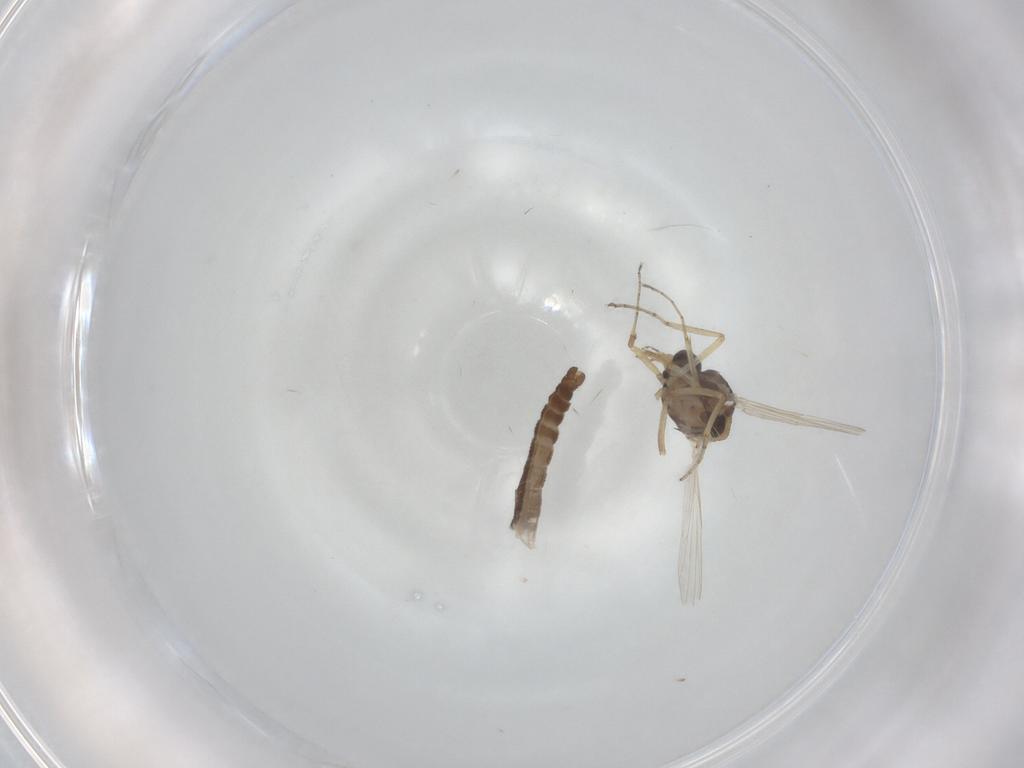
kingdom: Animalia
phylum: Arthropoda
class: Insecta
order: Diptera
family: Ceratopogonidae
